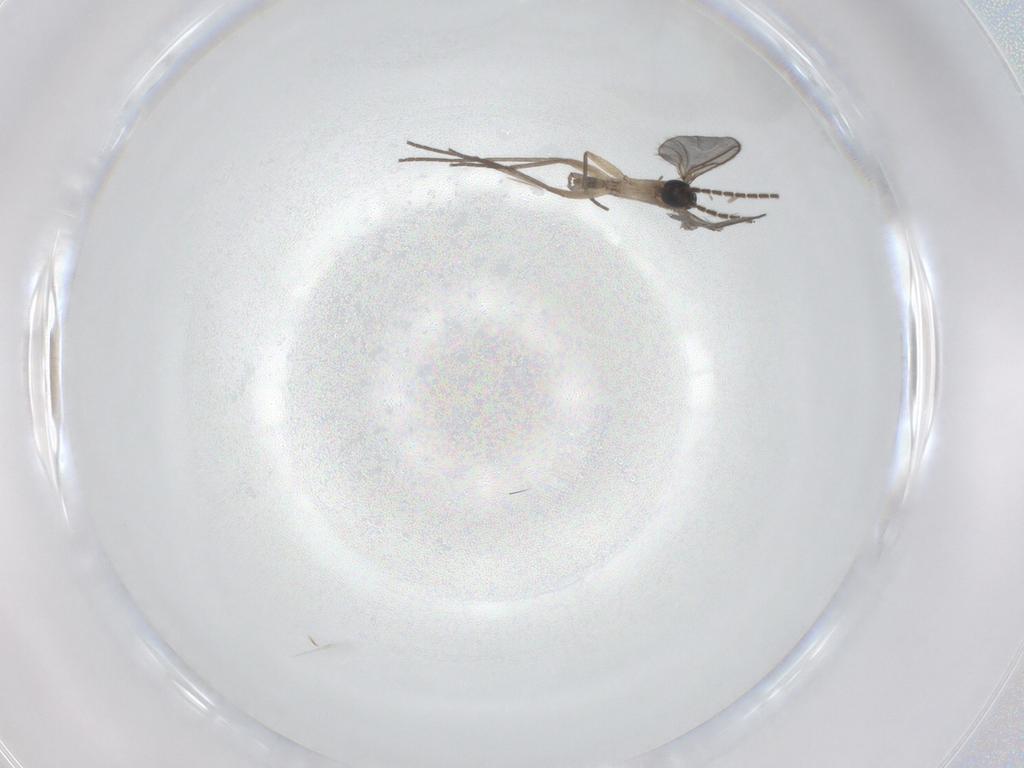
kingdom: Animalia
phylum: Arthropoda
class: Insecta
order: Diptera
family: Sciaridae
